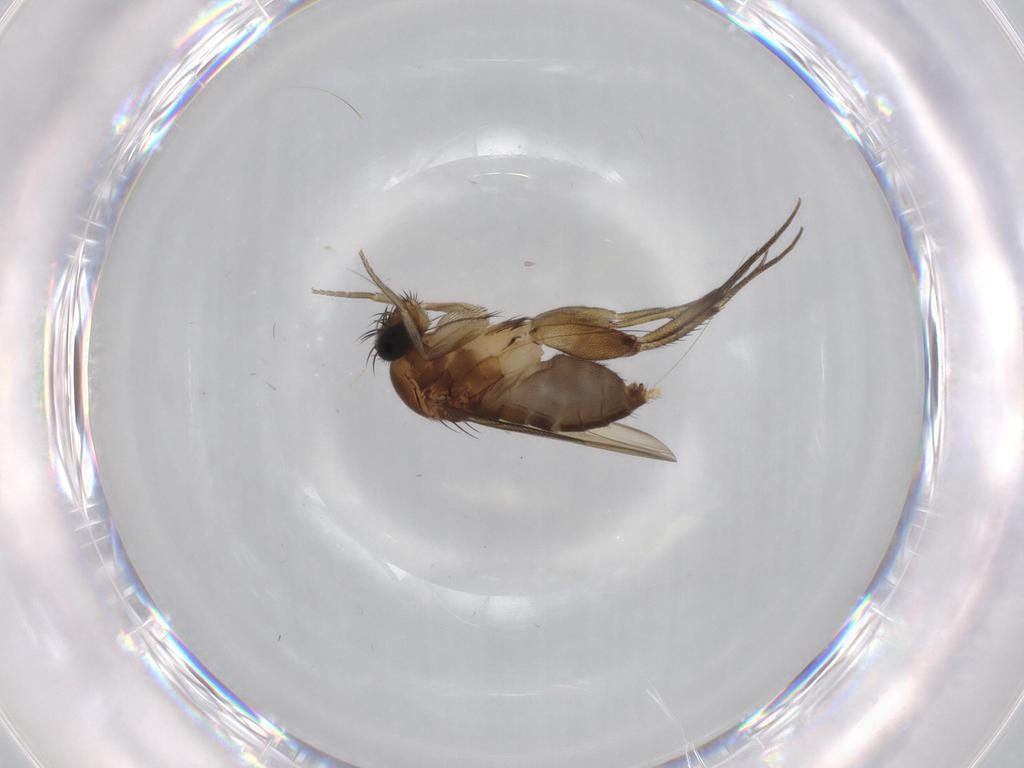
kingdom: Animalia
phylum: Arthropoda
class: Insecta
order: Diptera
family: Phoridae
